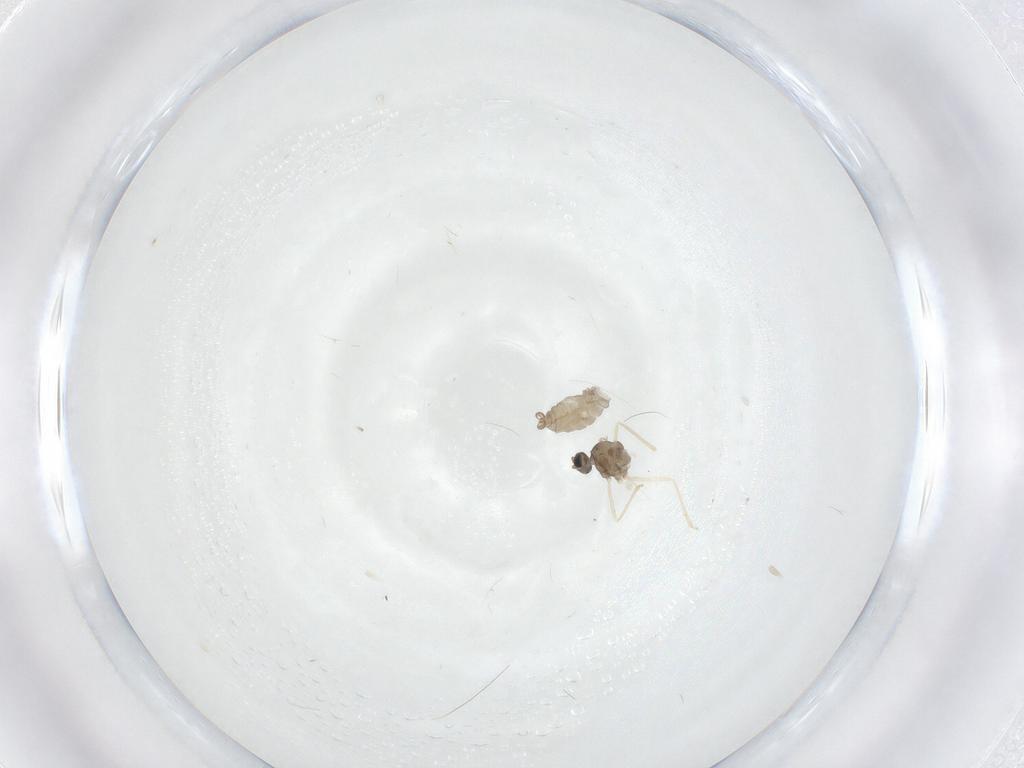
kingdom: Animalia
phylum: Arthropoda
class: Insecta
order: Diptera
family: Cecidomyiidae
